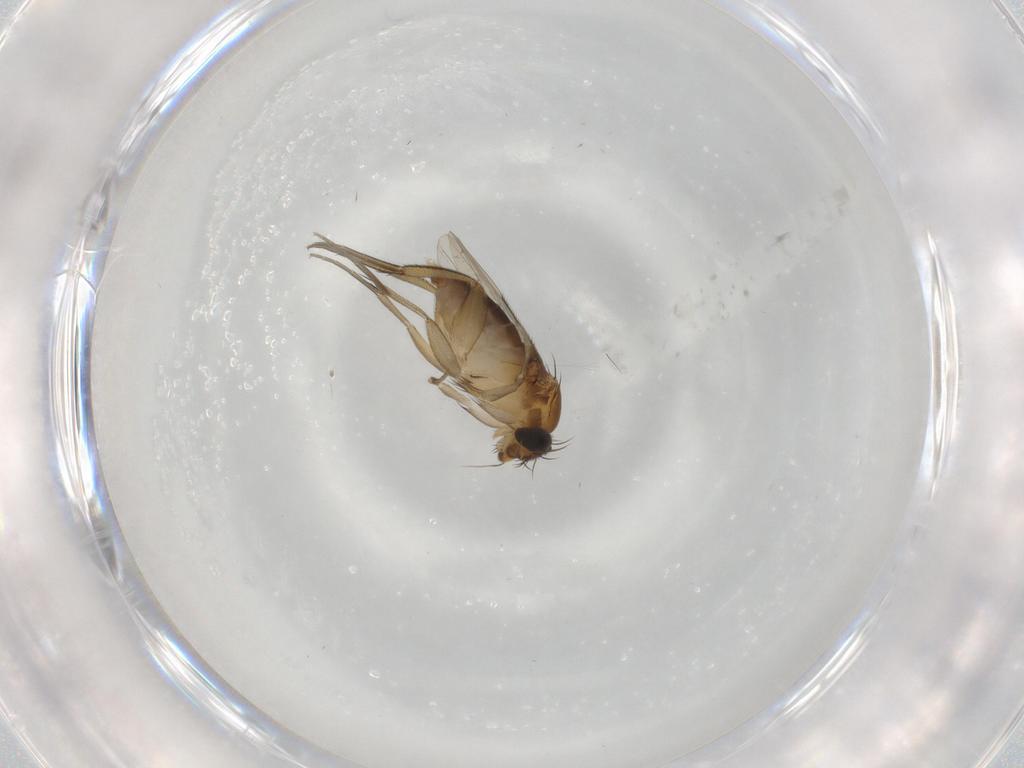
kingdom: Animalia
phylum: Arthropoda
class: Insecta
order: Diptera
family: Phoridae
